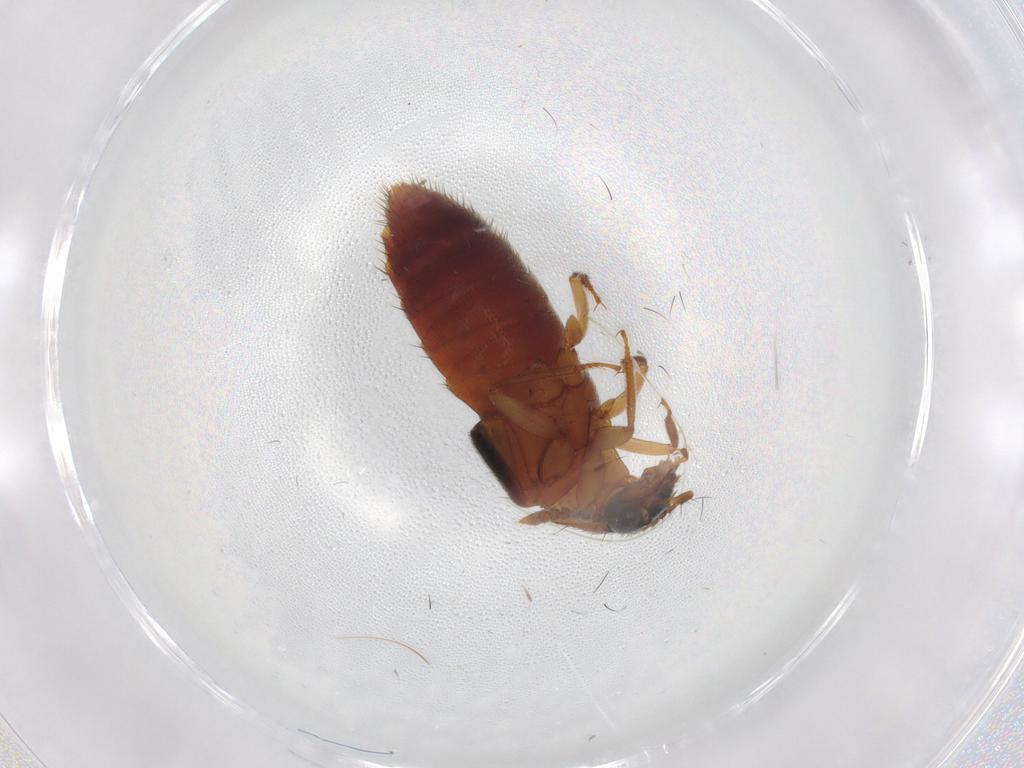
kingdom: Animalia
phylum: Arthropoda
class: Insecta
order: Coleoptera
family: Staphylinidae
